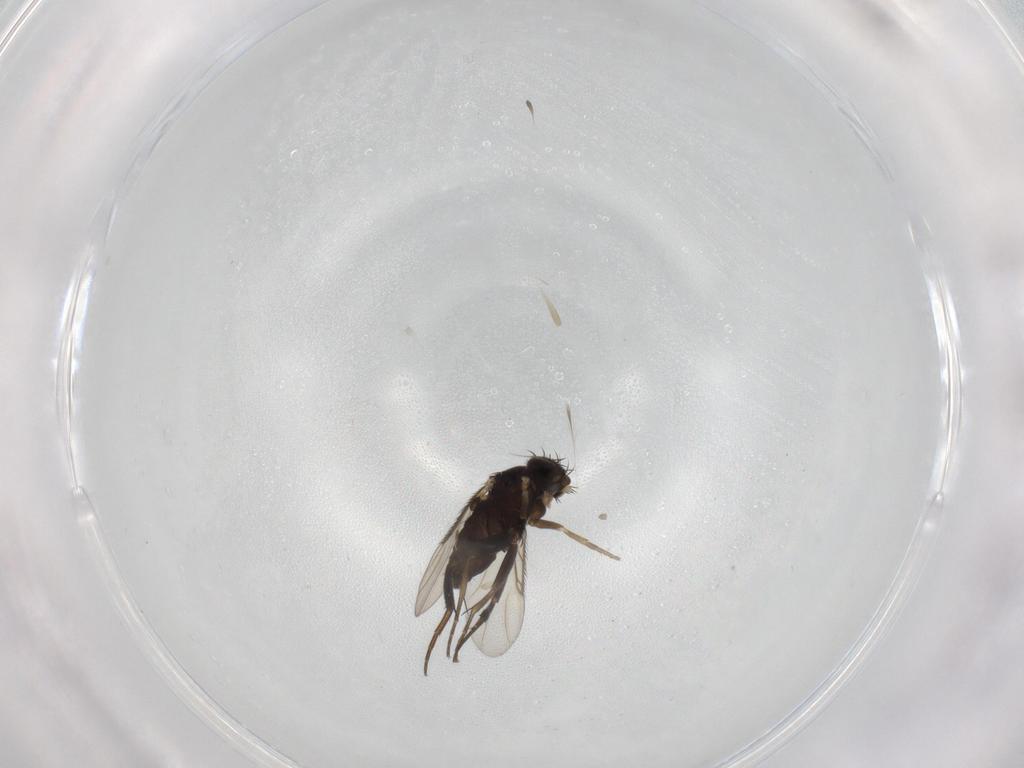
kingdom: Animalia
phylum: Arthropoda
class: Insecta
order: Diptera
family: Phoridae
